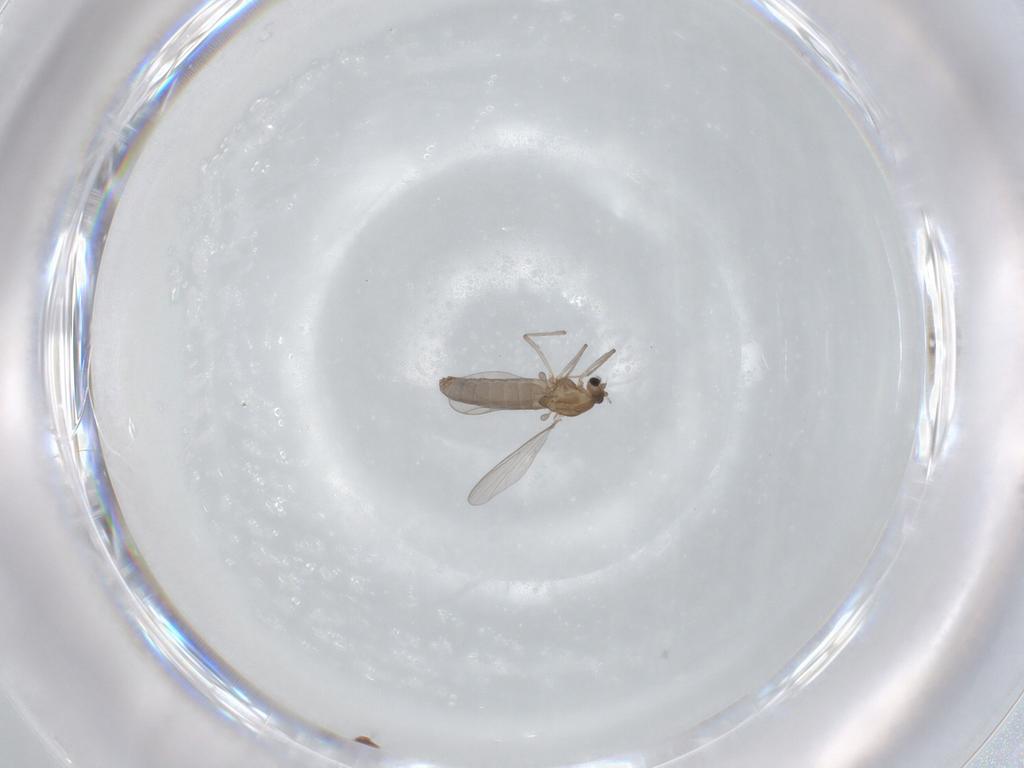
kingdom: Animalia
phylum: Arthropoda
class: Insecta
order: Diptera
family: Chironomidae
